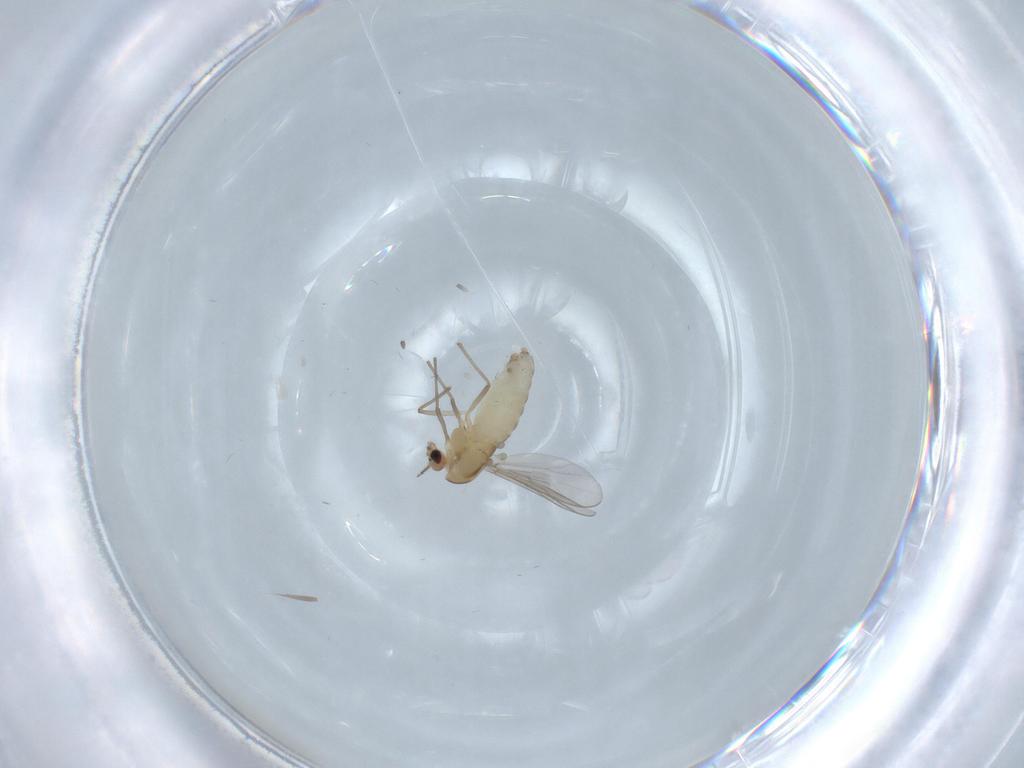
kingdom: Animalia
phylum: Arthropoda
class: Insecta
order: Diptera
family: Chironomidae
